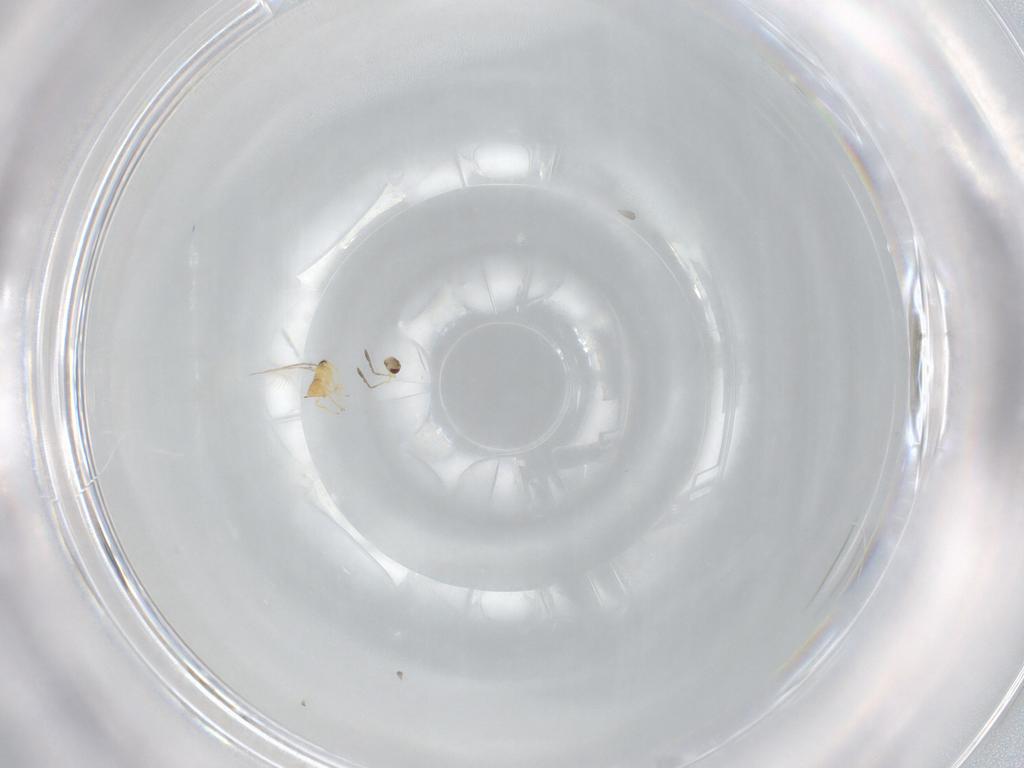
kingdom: Animalia
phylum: Arthropoda
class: Insecta
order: Hymenoptera
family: Mymaridae
